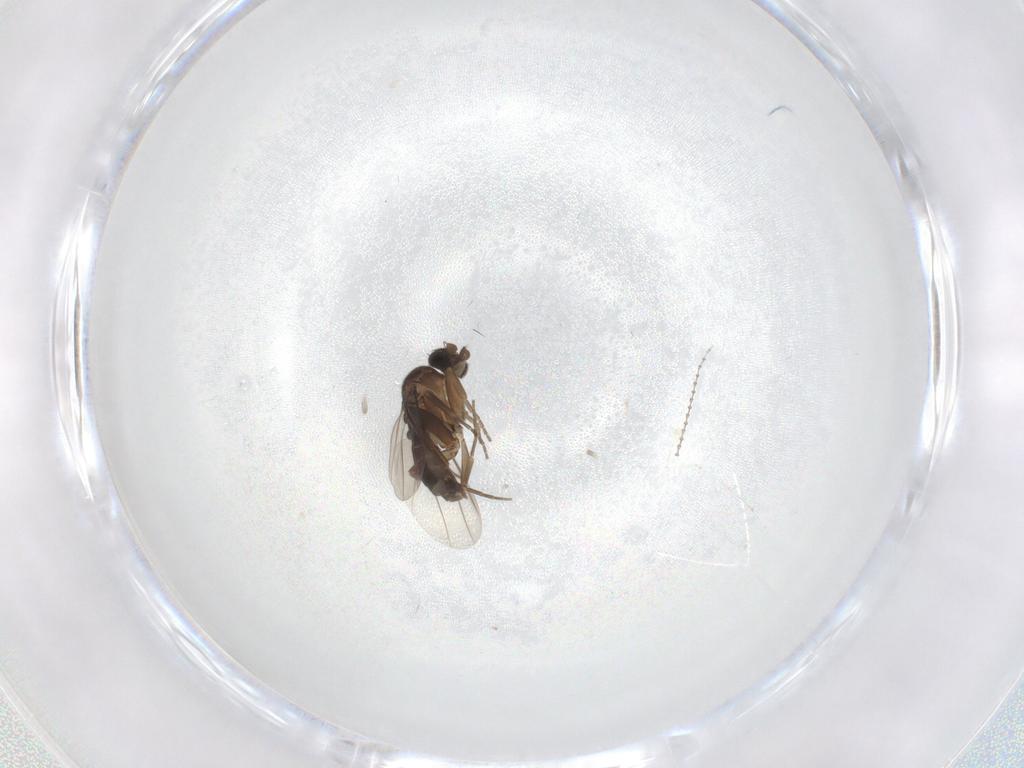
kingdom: Animalia
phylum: Arthropoda
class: Insecta
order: Diptera
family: Phoridae
